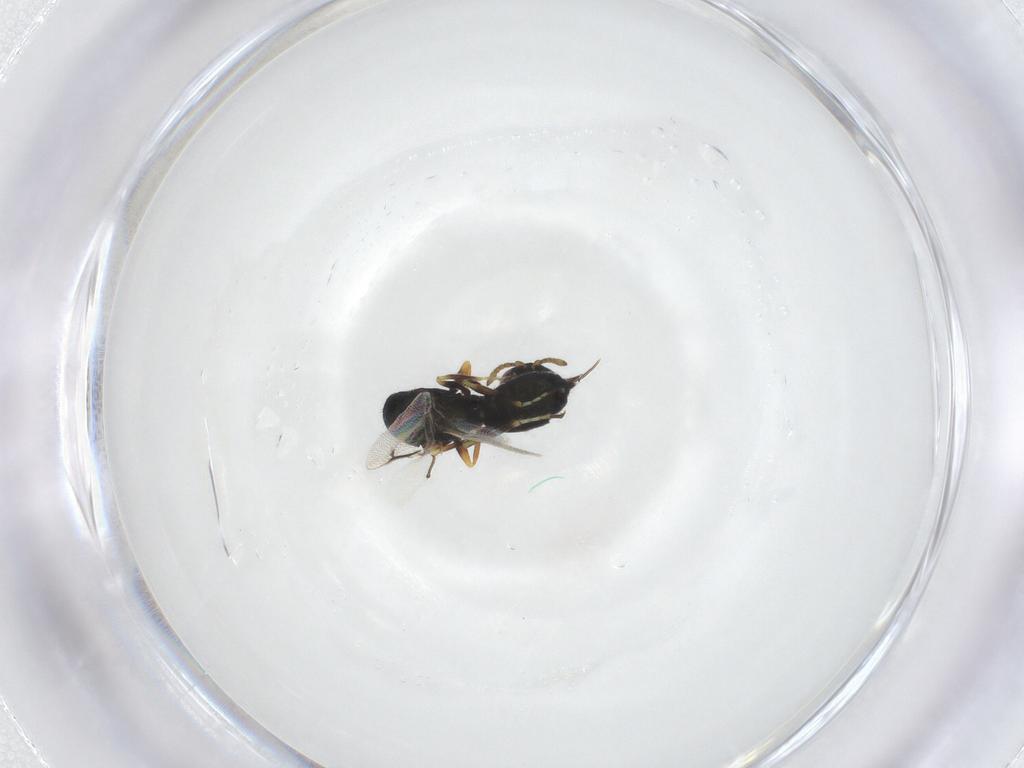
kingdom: Animalia
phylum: Arthropoda
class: Insecta
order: Hymenoptera
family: Eulophidae
